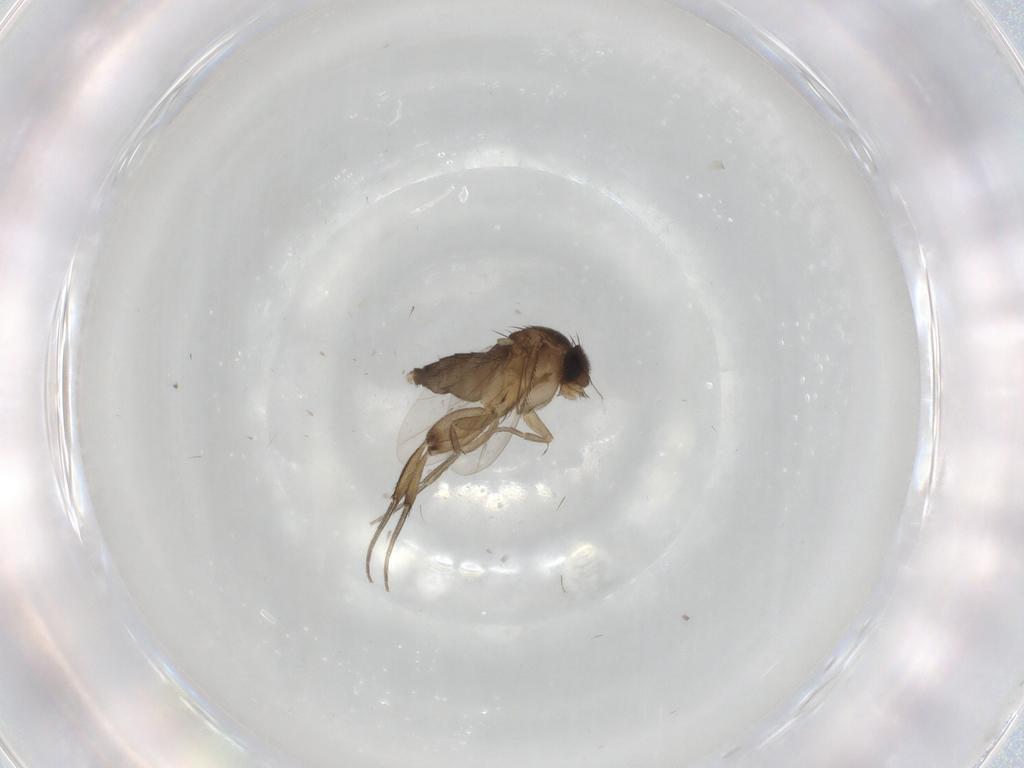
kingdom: Animalia
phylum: Arthropoda
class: Insecta
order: Diptera
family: Phoridae
